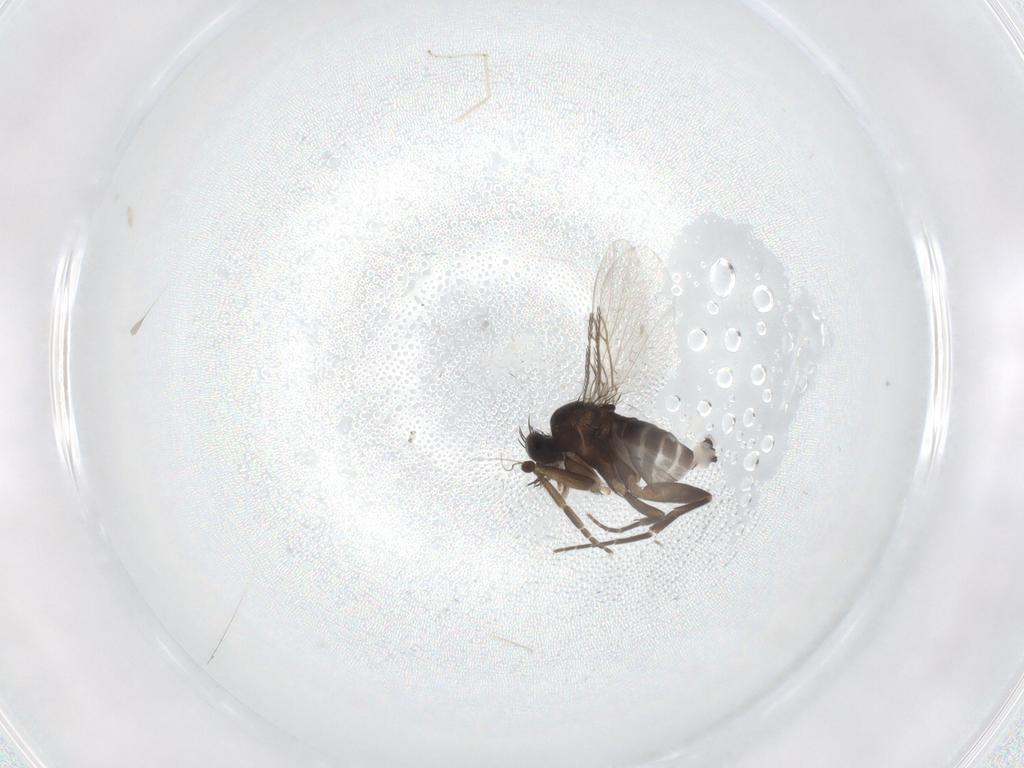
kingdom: Animalia
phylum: Arthropoda
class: Insecta
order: Diptera
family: Phoridae
